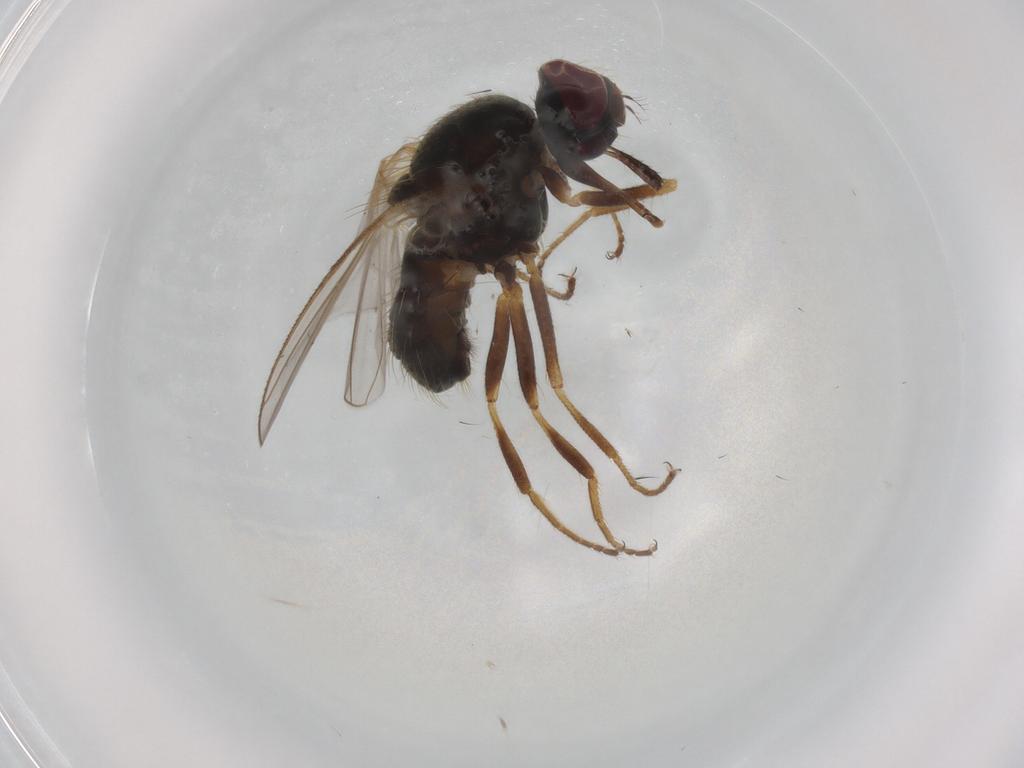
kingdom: Animalia
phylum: Arthropoda
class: Insecta
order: Diptera
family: Muscidae
